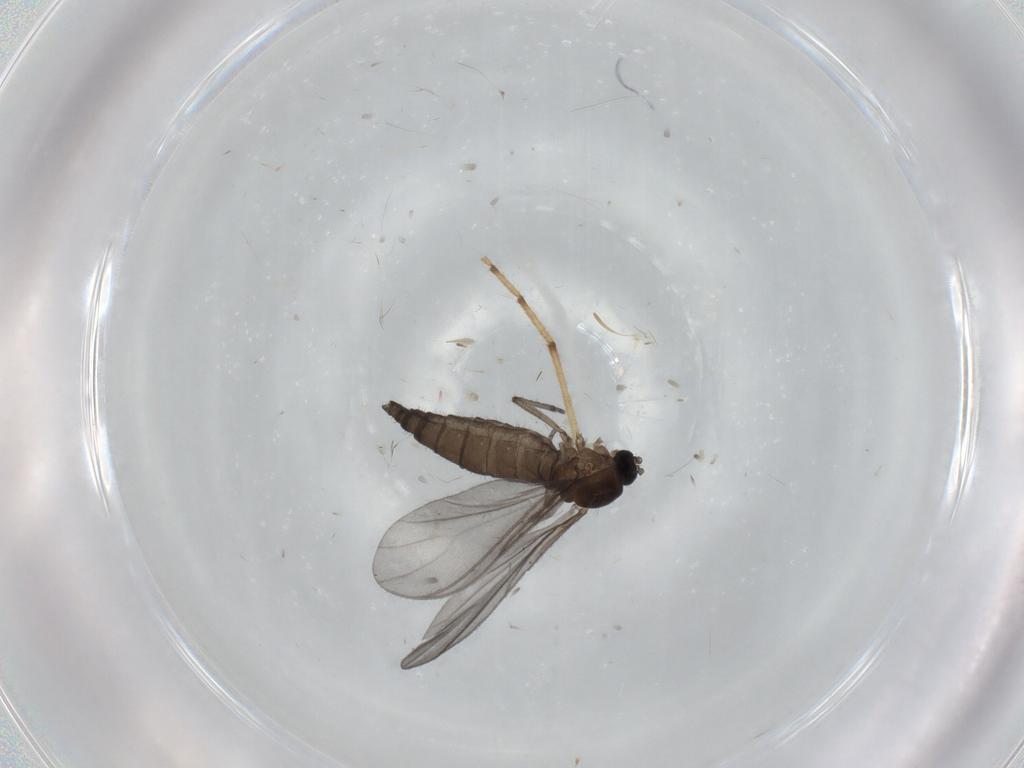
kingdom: Animalia
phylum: Arthropoda
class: Insecta
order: Diptera
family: Sciaridae
